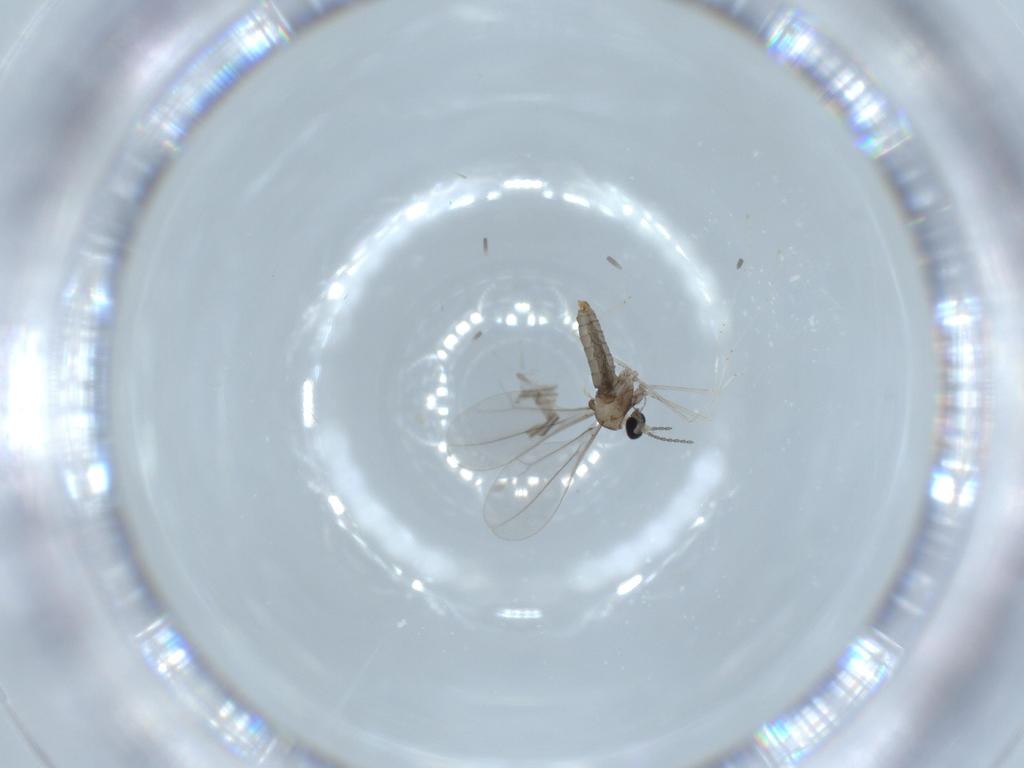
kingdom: Animalia
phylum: Arthropoda
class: Insecta
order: Diptera
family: Cecidomyiidae
